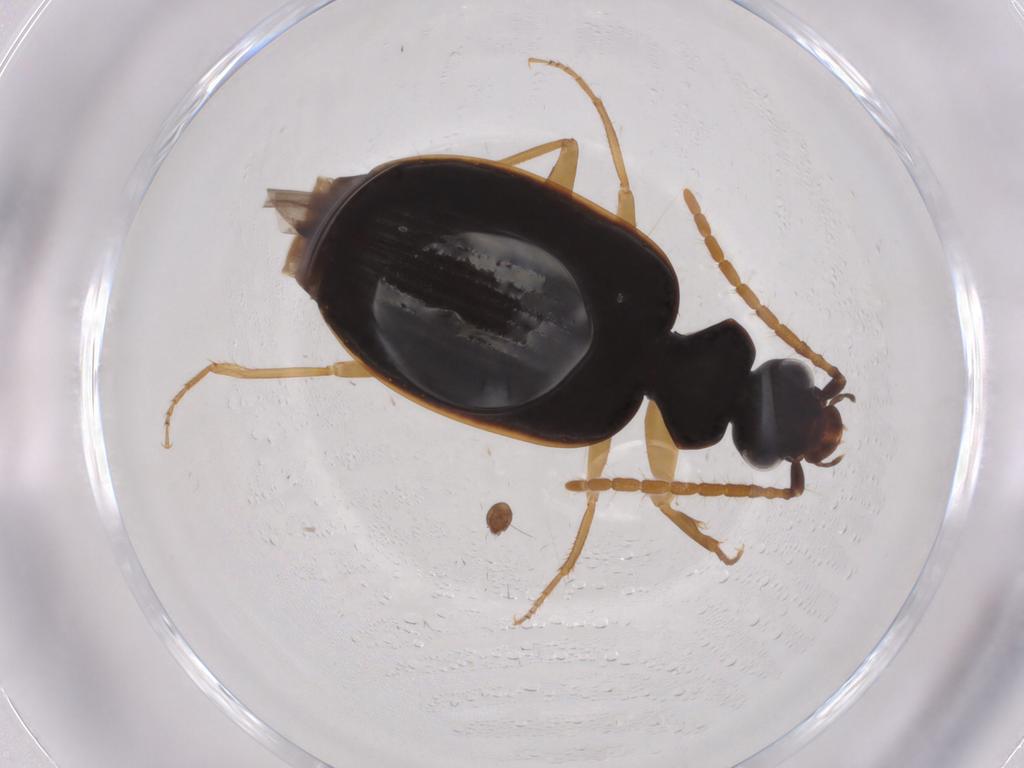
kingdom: Animalia
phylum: Arthropoda
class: Insecta
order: Coleoptera
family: Carabidae
